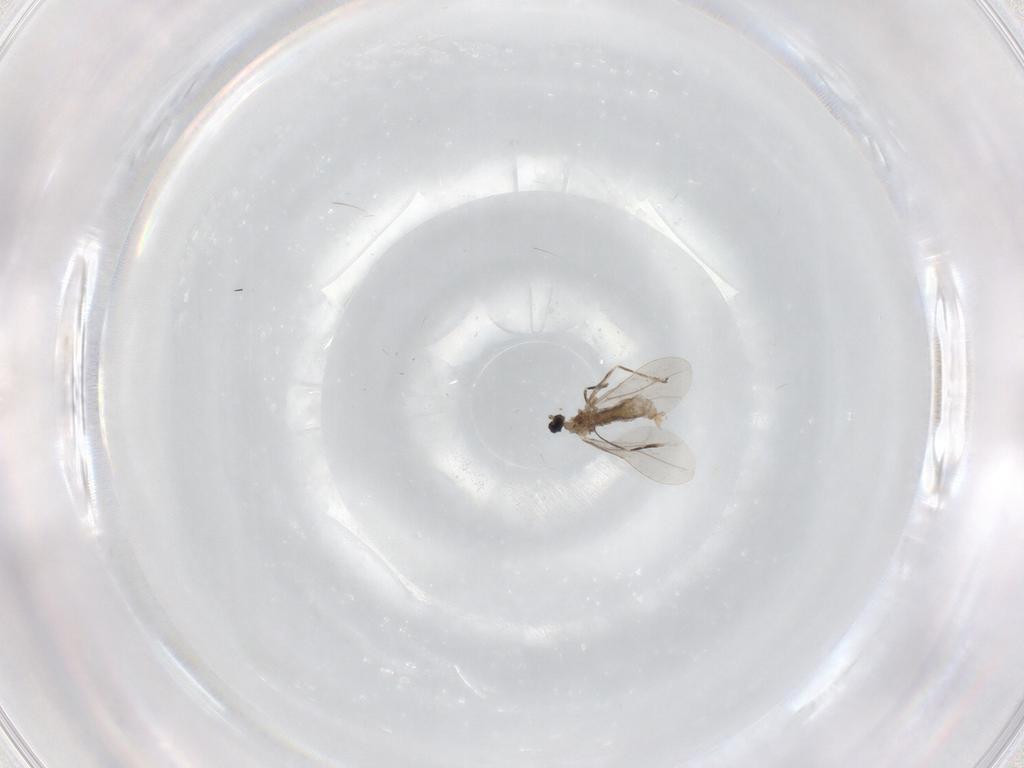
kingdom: Animalia
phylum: Arthropoda
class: Insecta
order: Diptera
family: Cecidomyiidae
